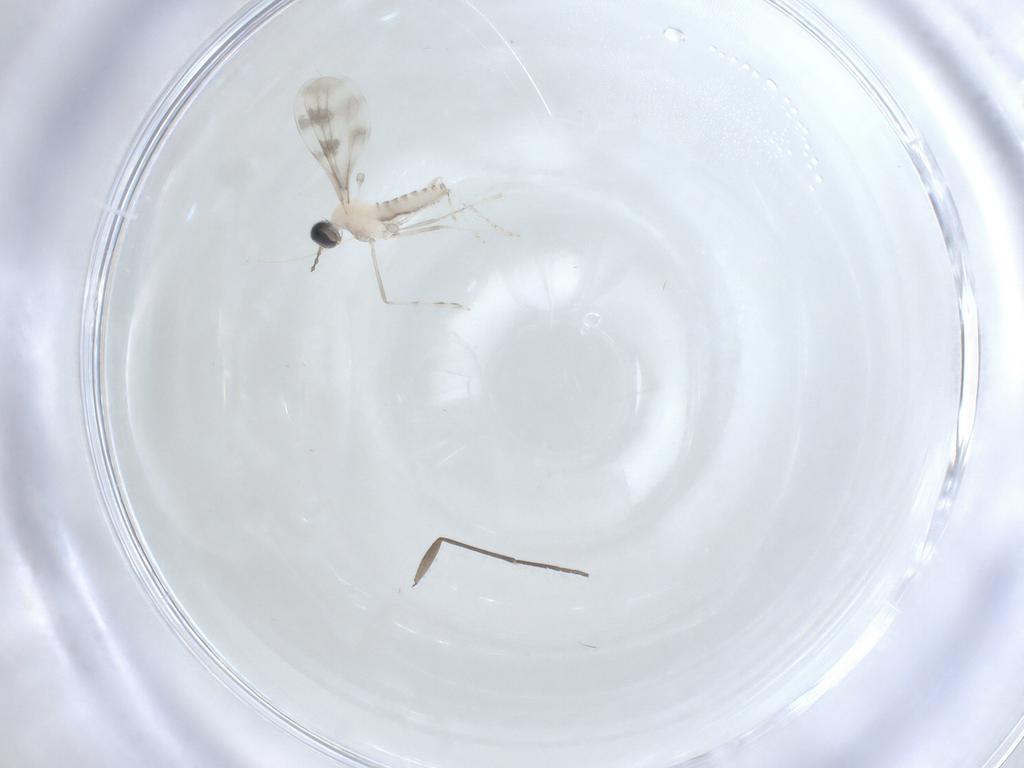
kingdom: Animalia
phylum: Arthropoda
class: Insecta
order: Diptera
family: Cecidomyiidae
